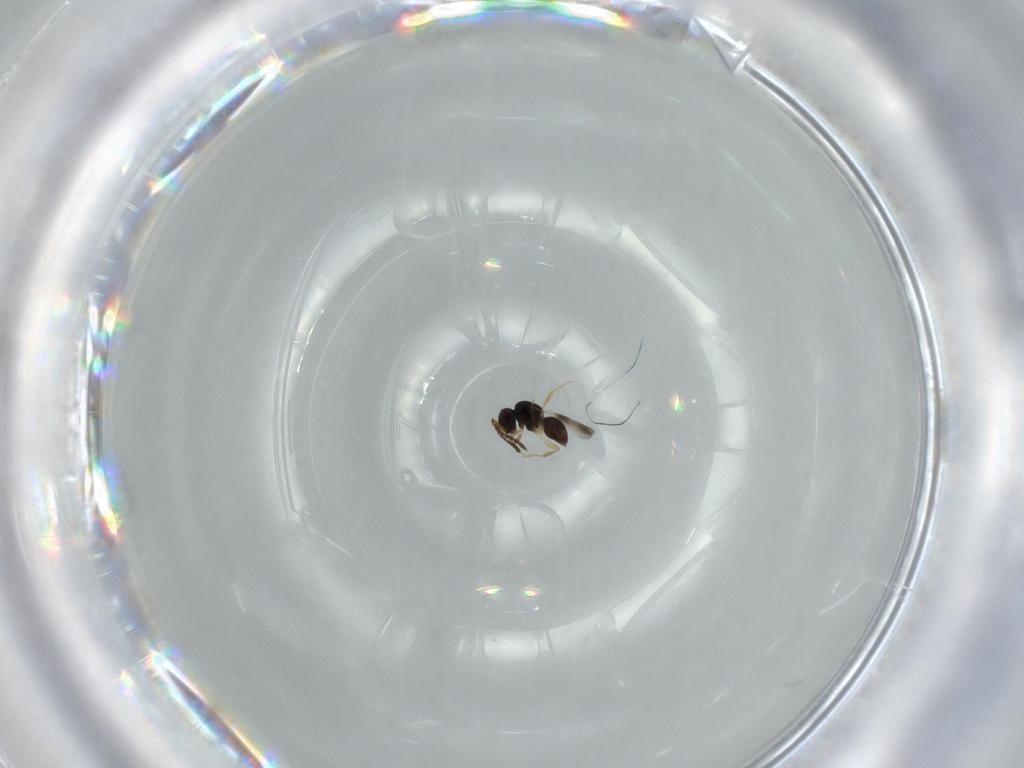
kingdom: Animalia
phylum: Arthropoda
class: Insecta
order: Hymenoptera
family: Ceraphronidae
